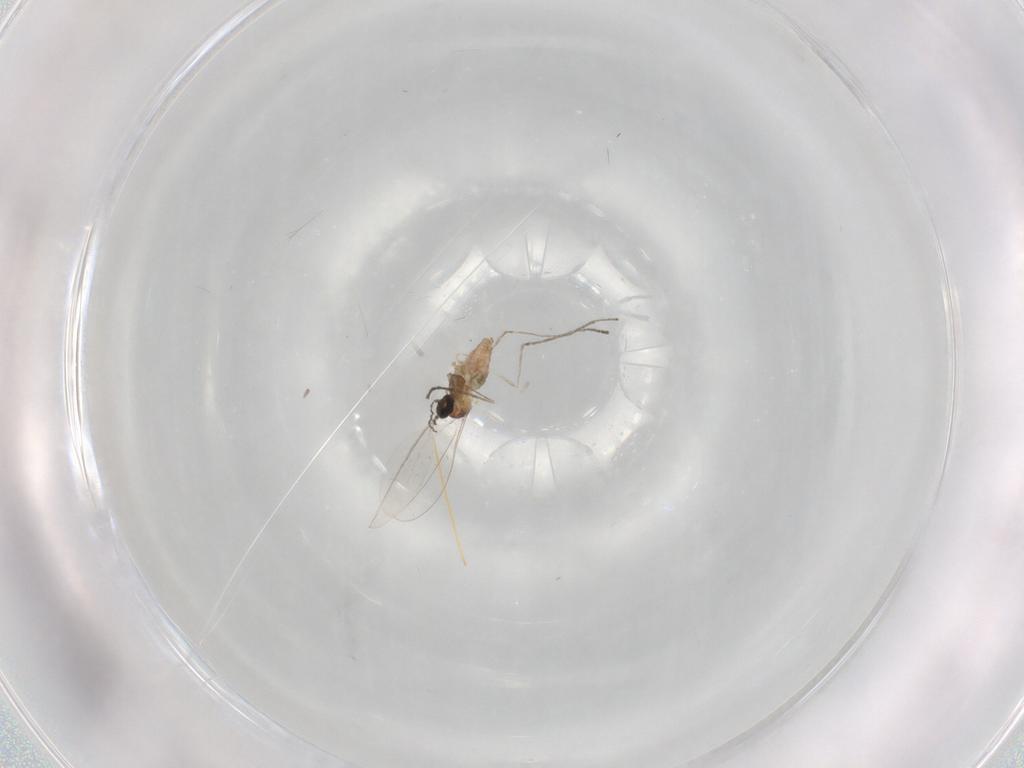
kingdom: Animalia
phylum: Arthropoda
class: Insecta
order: Diptera
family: Cecidomyiidae
